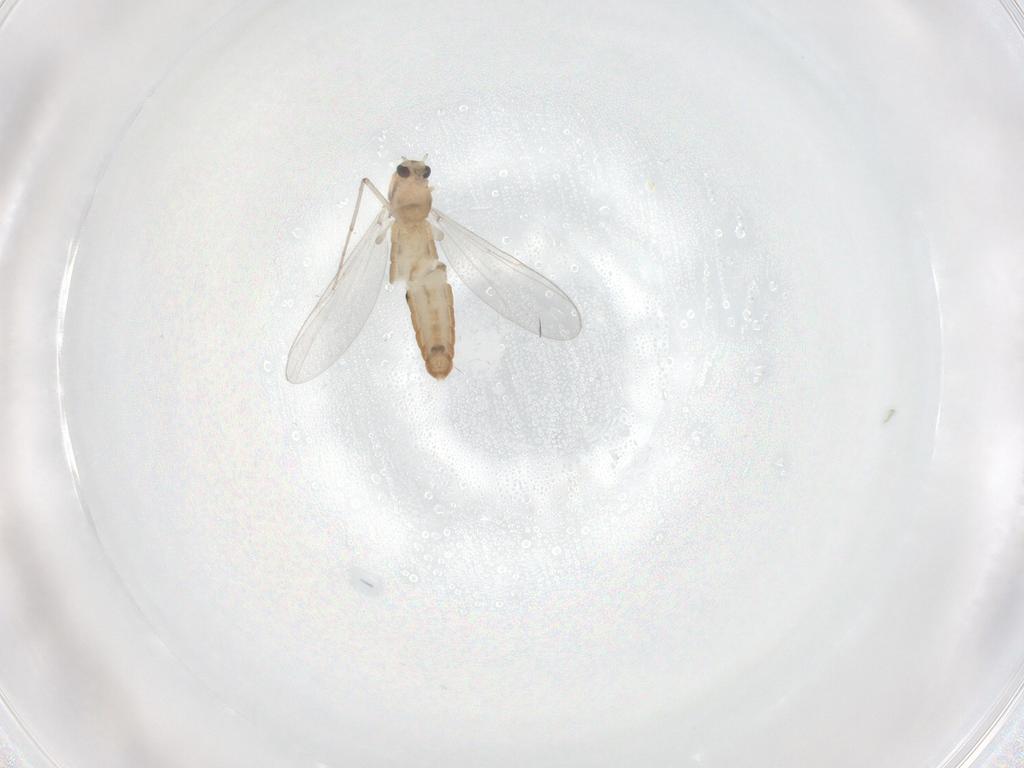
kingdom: Animalia
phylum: Arthropoda
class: Insecta
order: Diptera
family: Chironomidae
